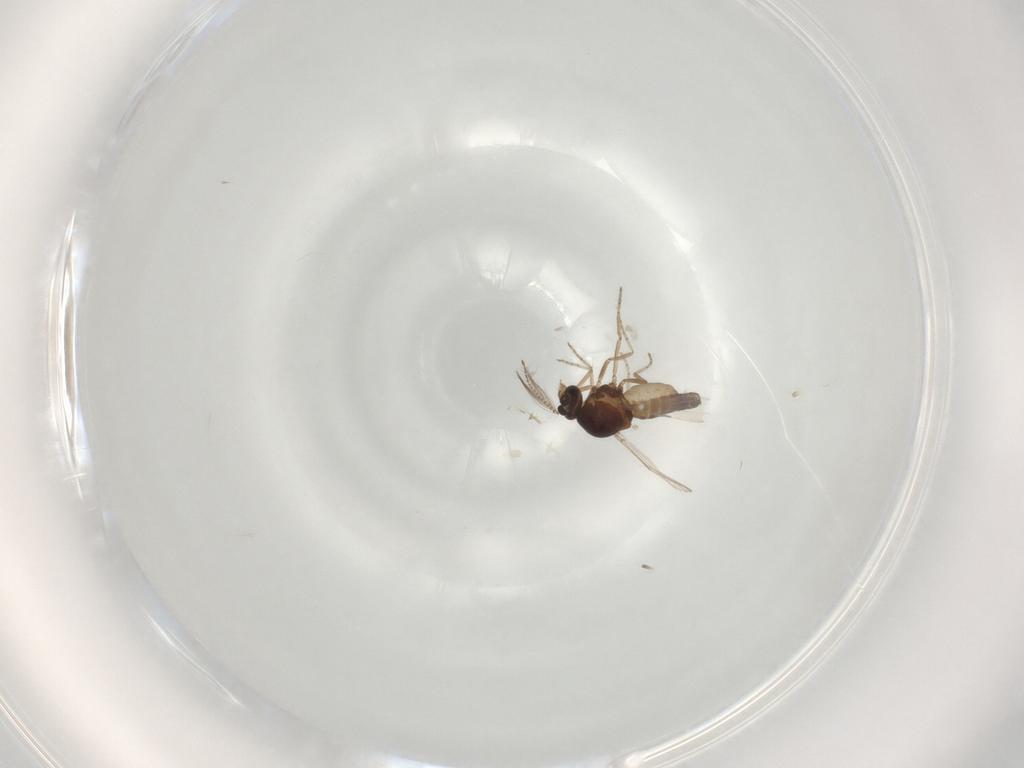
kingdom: Animalia
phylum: Arthropoda
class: Insecta
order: Diptera
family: Ceratopogonidae
